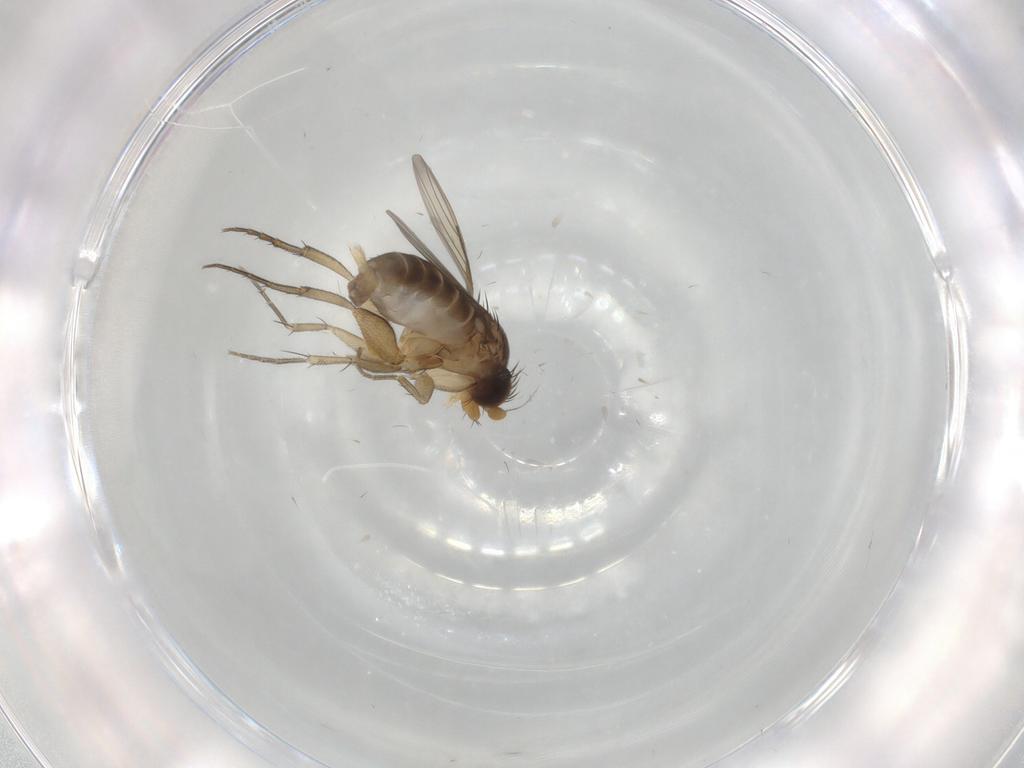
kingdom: Animalia
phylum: Arthropoda
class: Insecta
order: Diptera
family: Phoridae
